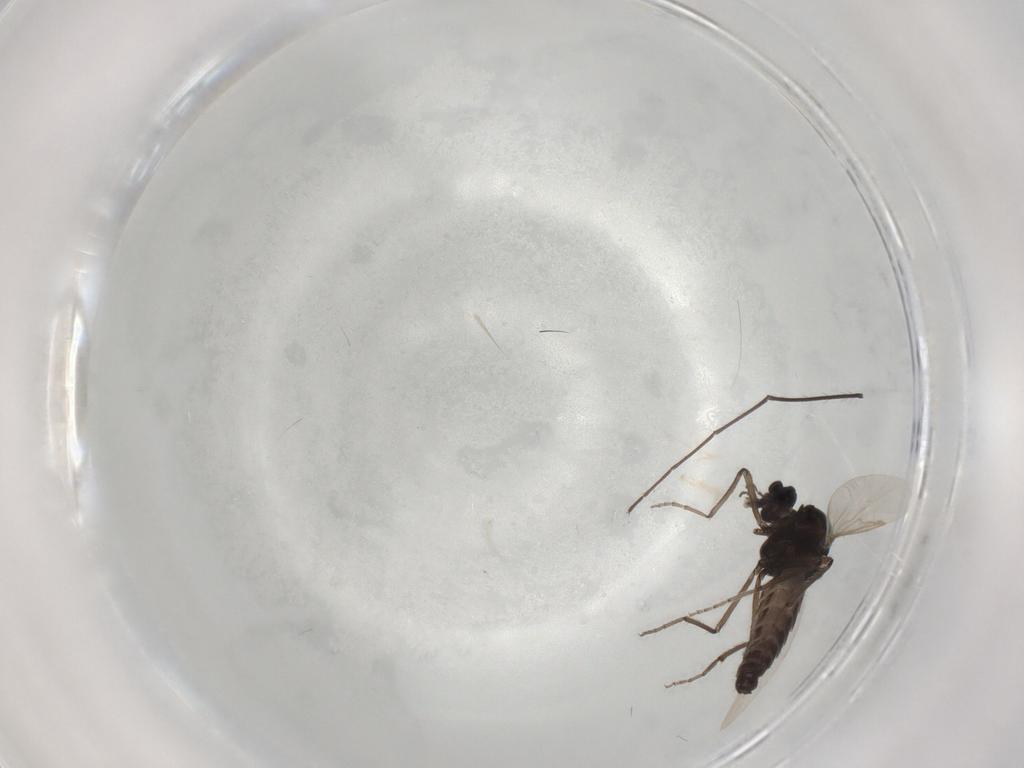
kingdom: Animalia
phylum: Arthropoda
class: Insecta
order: Diptera
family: Ceratopogonidae
